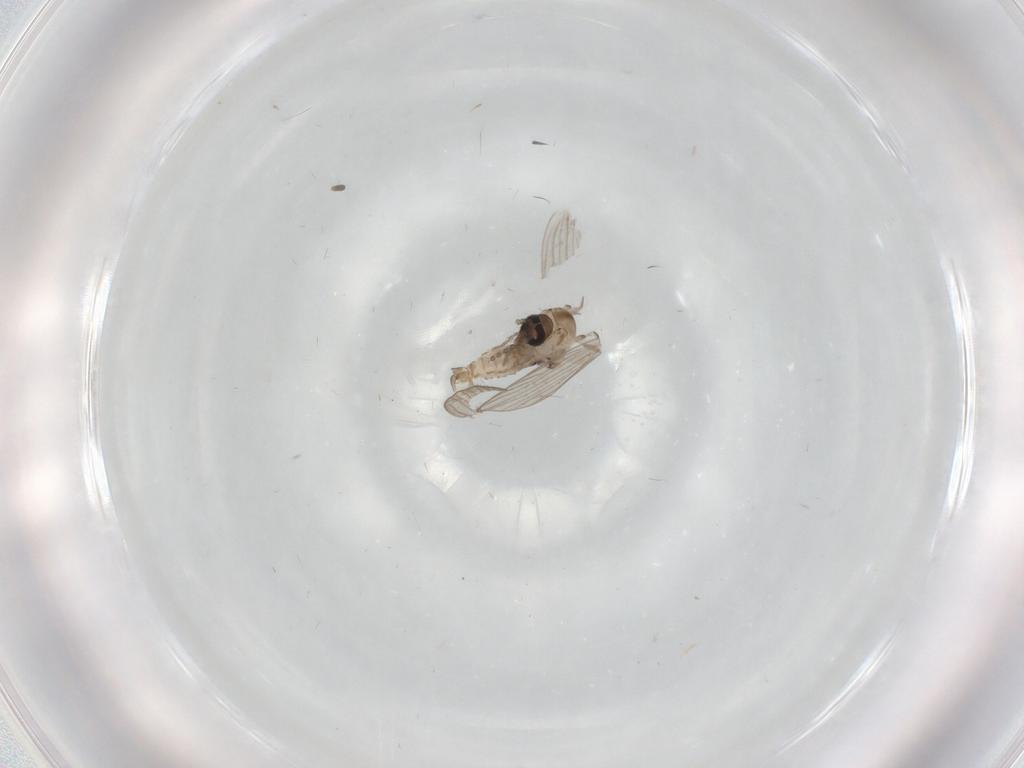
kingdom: Animalia
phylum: Arthropoda
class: Insecta
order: Diptera
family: Psychodidae
